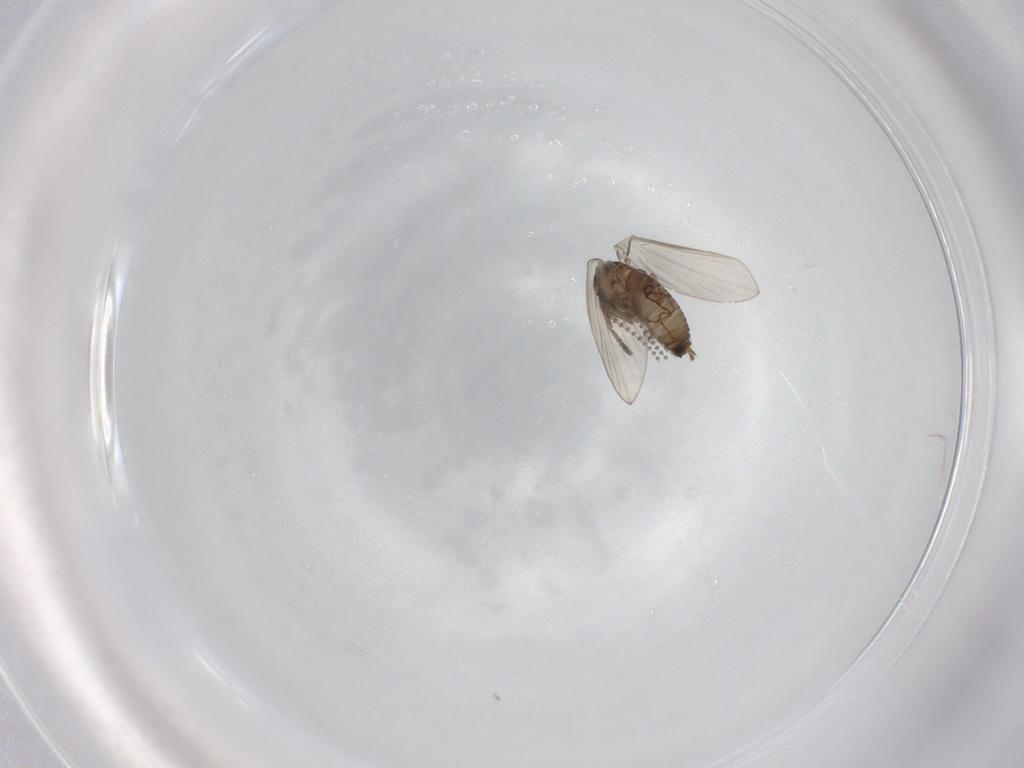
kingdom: Animalia
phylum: Arthropoda
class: Insecta
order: Diptera
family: Psychodidae
